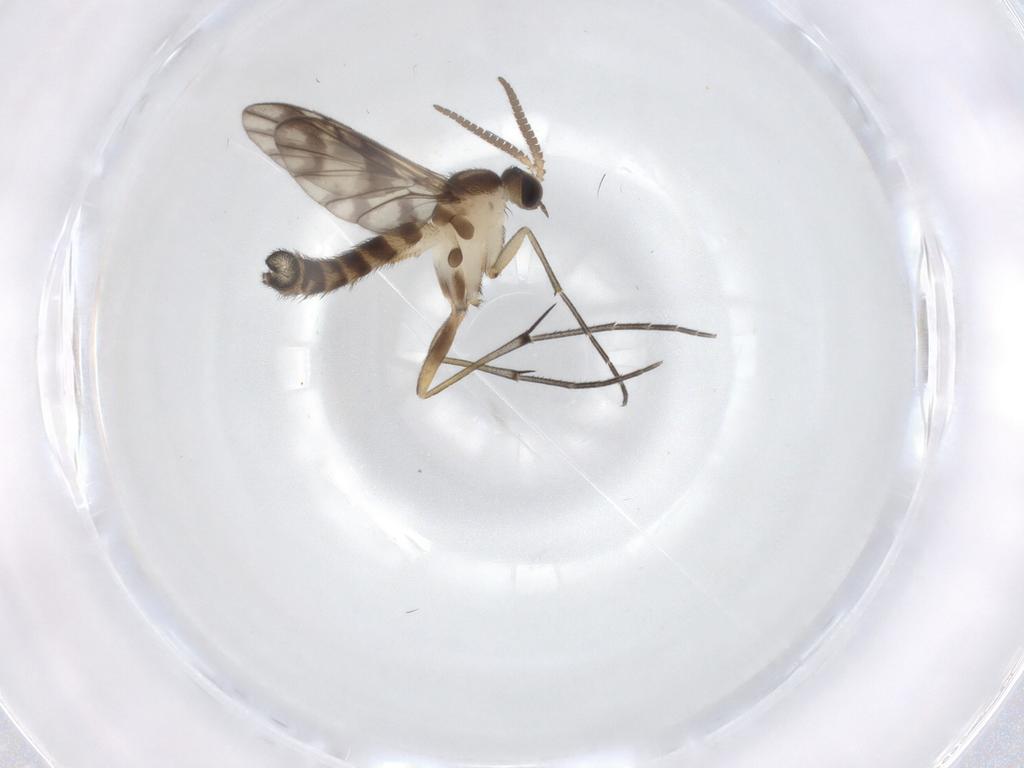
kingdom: Animalia
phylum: Arthropoda
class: Insecta
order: Diptera
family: Keroplatidae
